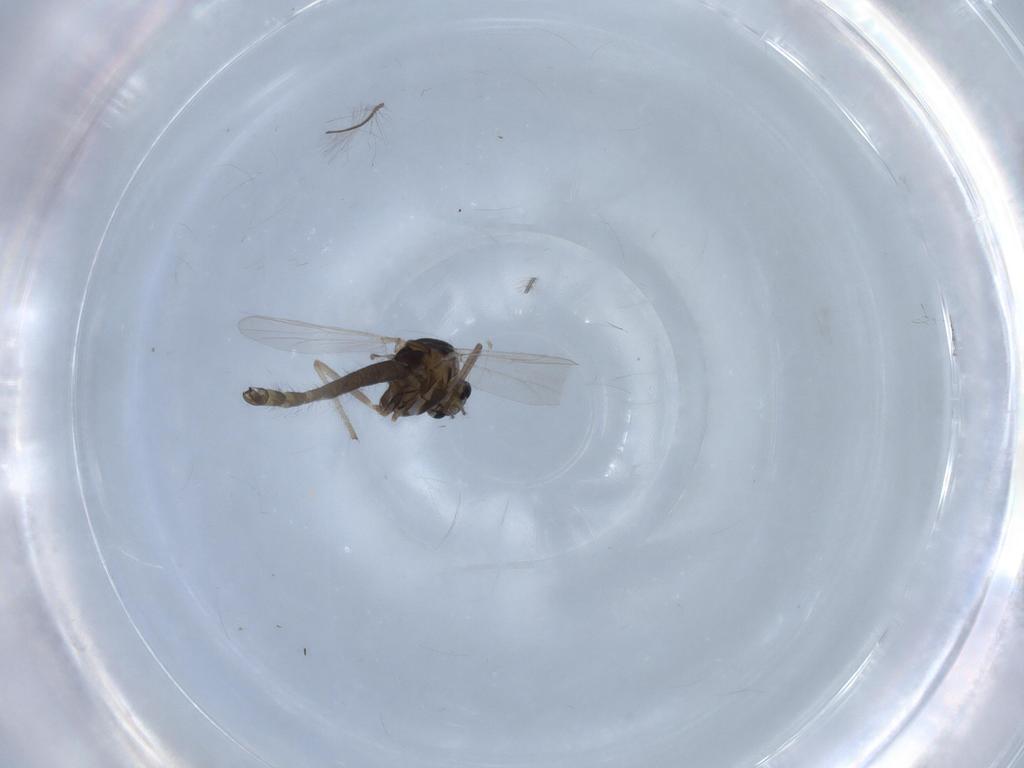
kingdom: Animalia
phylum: Arthropoda
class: Insecta
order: Diptera
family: Chironomidae
